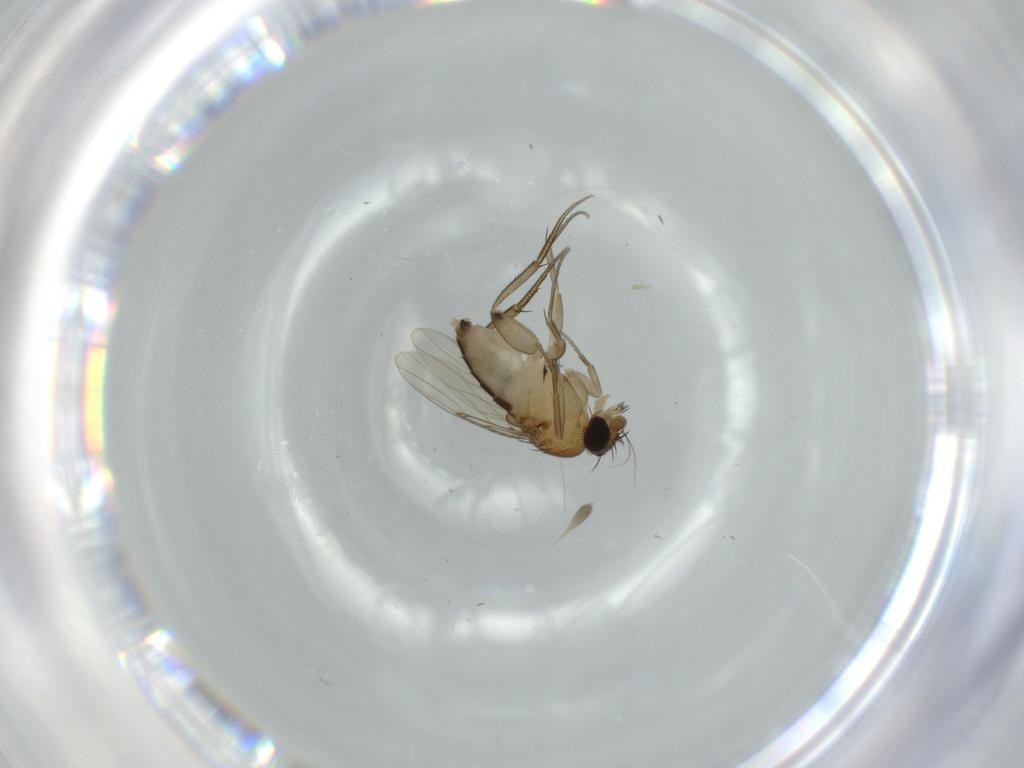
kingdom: Animalia
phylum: Arthropoda
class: Insecta
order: Diptera
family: Phoridae
